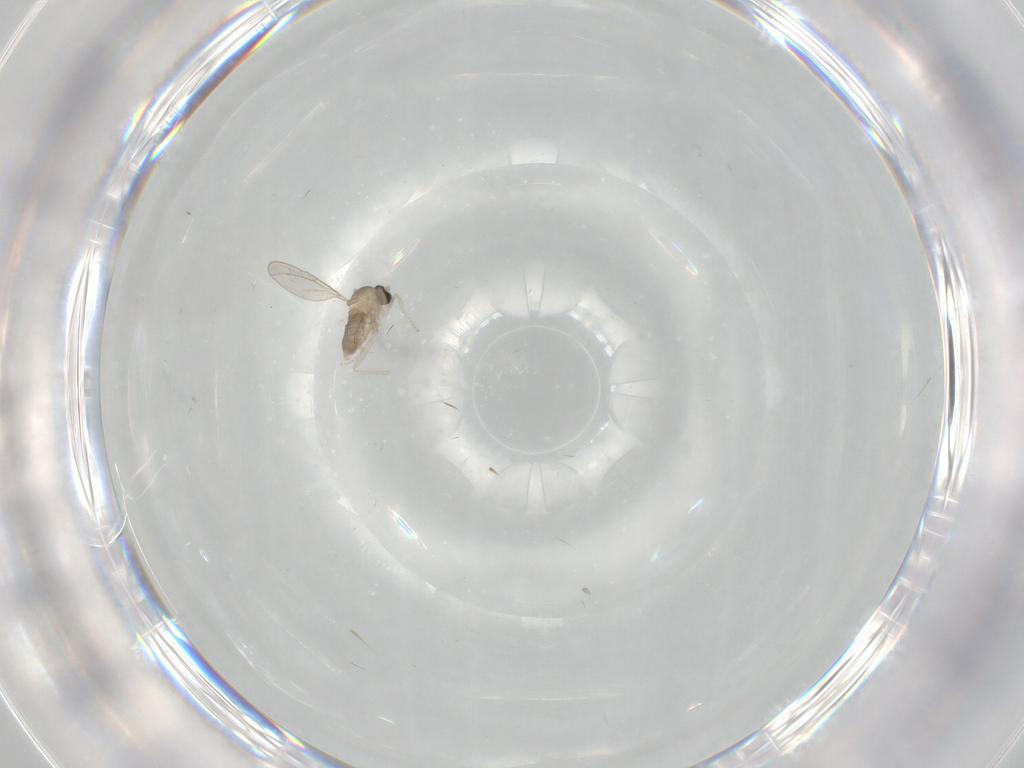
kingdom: Animalia
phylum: Arthropoda
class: Insecta
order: Diptera
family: Cecidomyiidae
